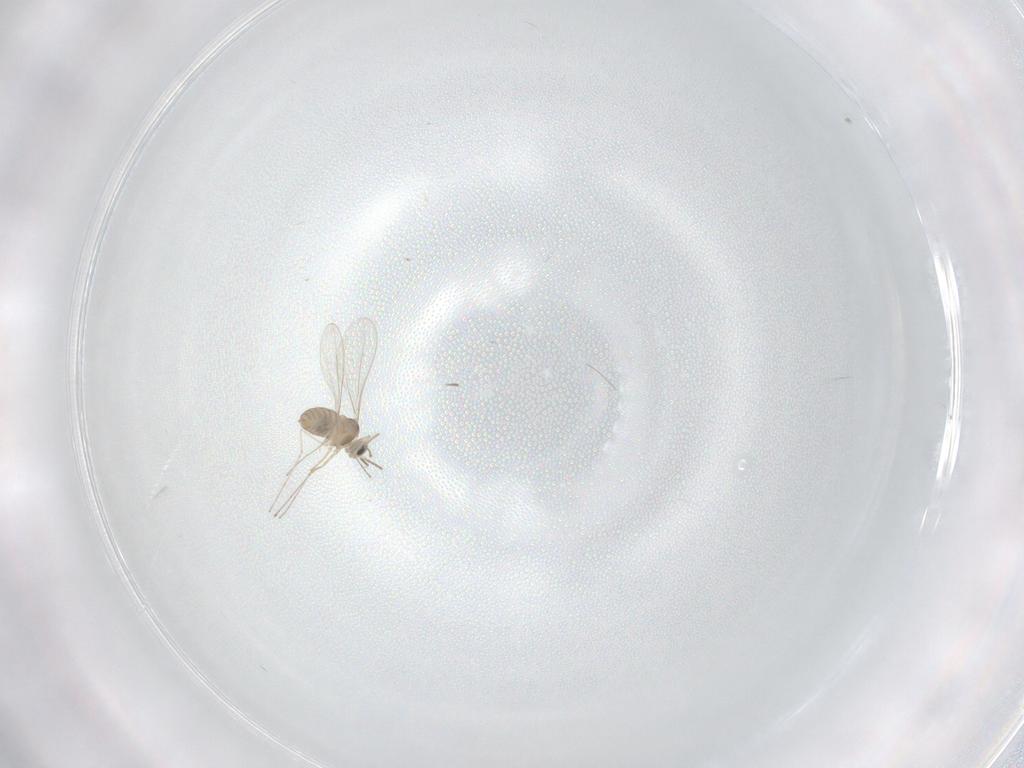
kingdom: Animalia
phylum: Arthropoda
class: Insecta
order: Diptera
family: Cecidomyiidae
